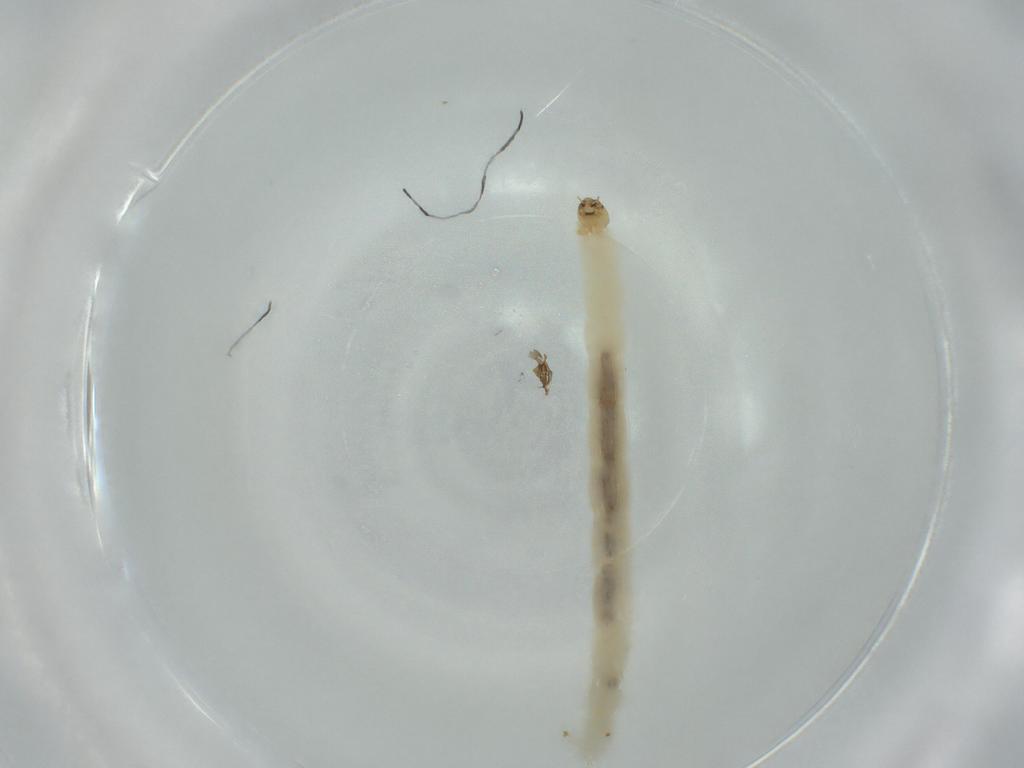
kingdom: Animalia
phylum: Arthropoda
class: Insecta
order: Diptera
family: Chironomidae
